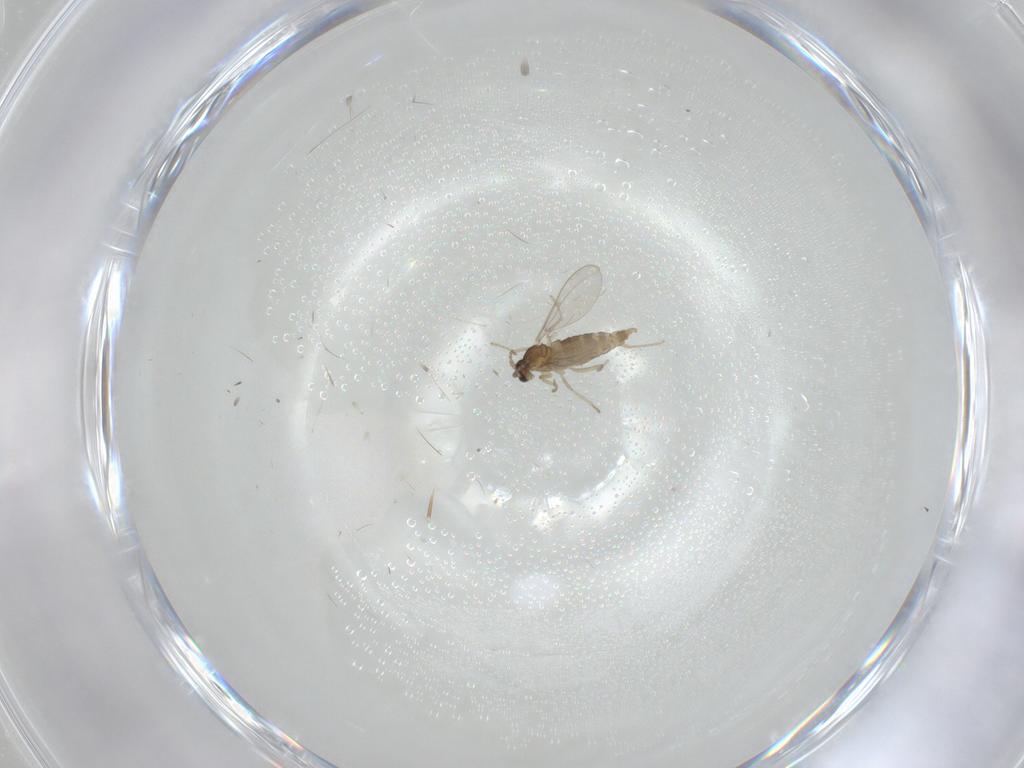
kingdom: Animalia
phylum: Arthropoda
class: Insecta
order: Diptera
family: Cecidomyiidae
